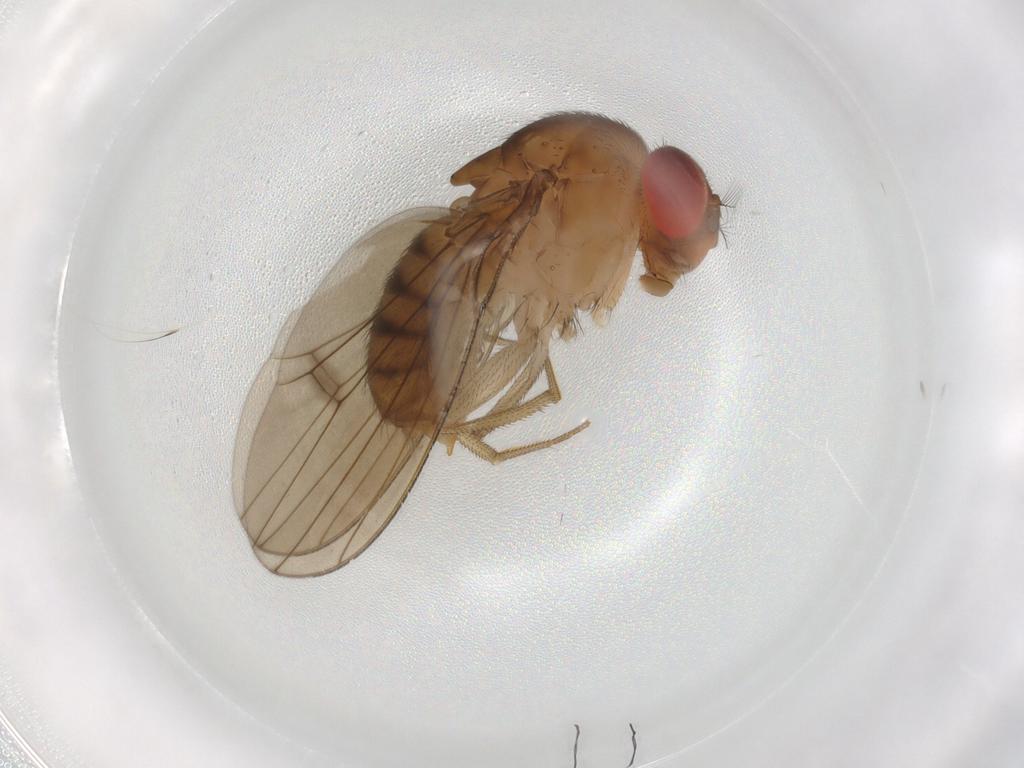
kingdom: Animalia
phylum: Arthropoda
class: Insecta
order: Diptera
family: Drosophilidae
